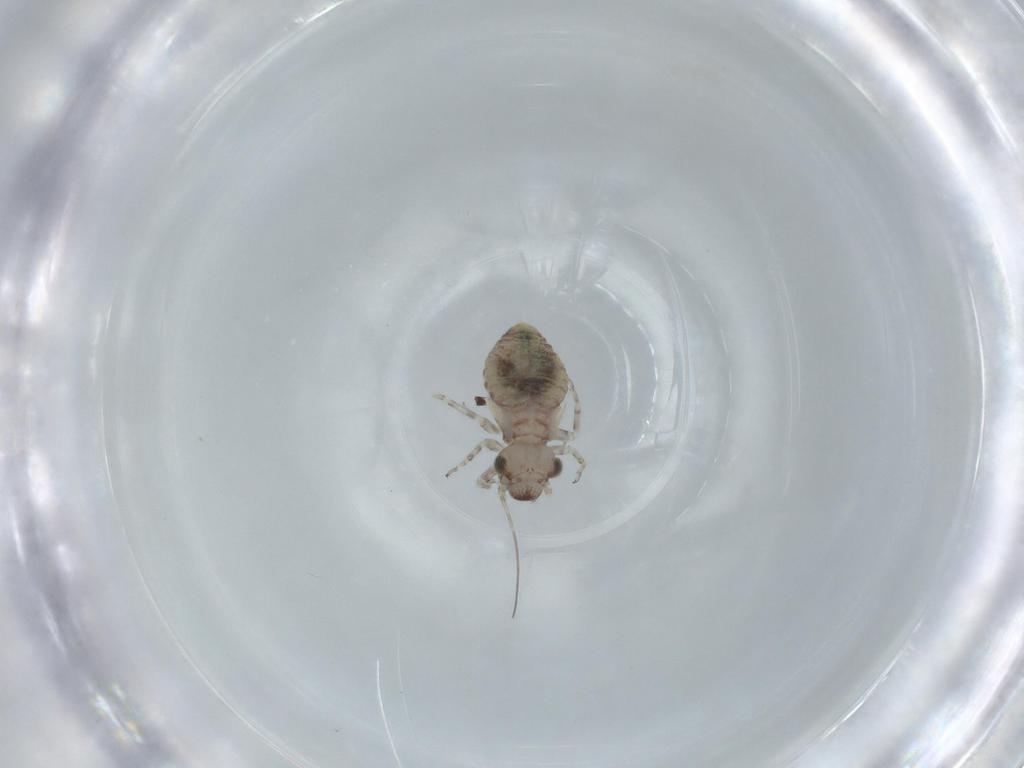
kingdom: Animalia
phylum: Arthropoda
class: Insecta
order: Psocodea
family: Psocidae
